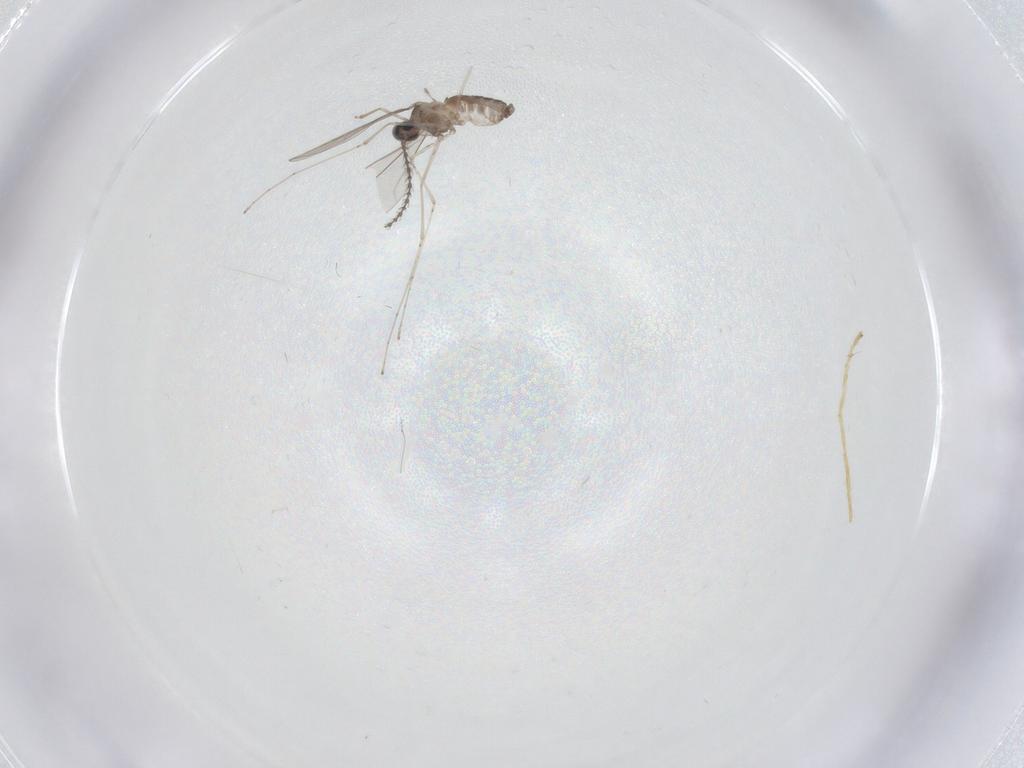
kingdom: Animalia
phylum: Arthropoda
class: Insecta
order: Diptera
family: Cecidomyiidae
